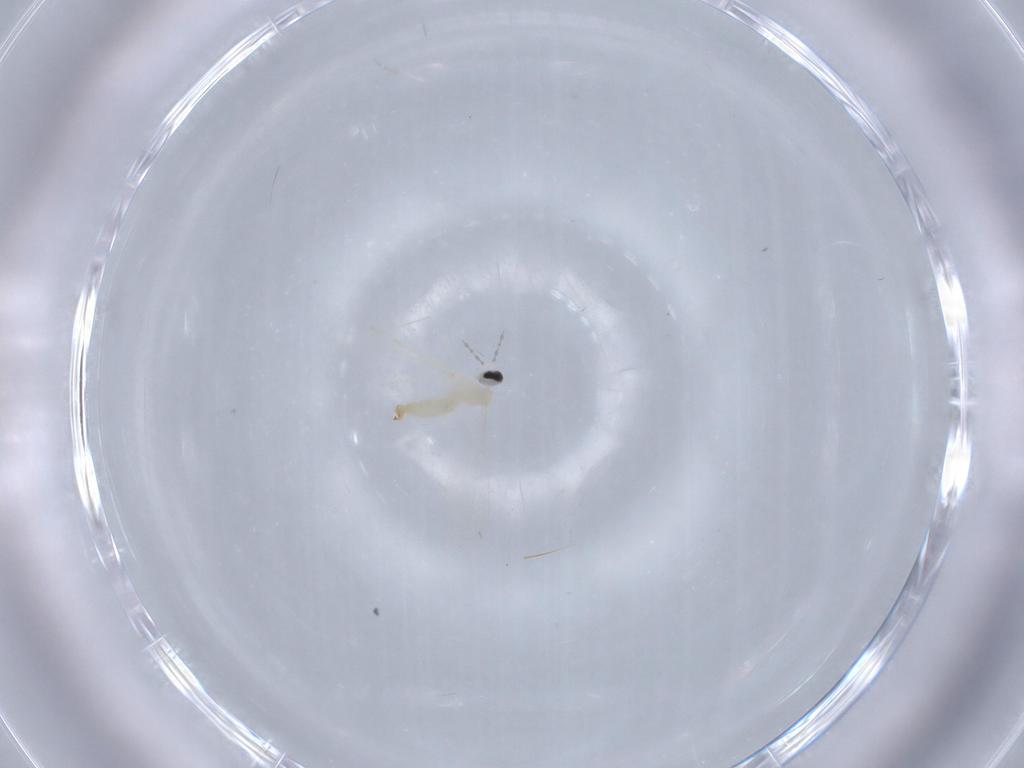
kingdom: Animalia
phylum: Arthropoda
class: Insecta
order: Diptera
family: Cecidomyiidae
